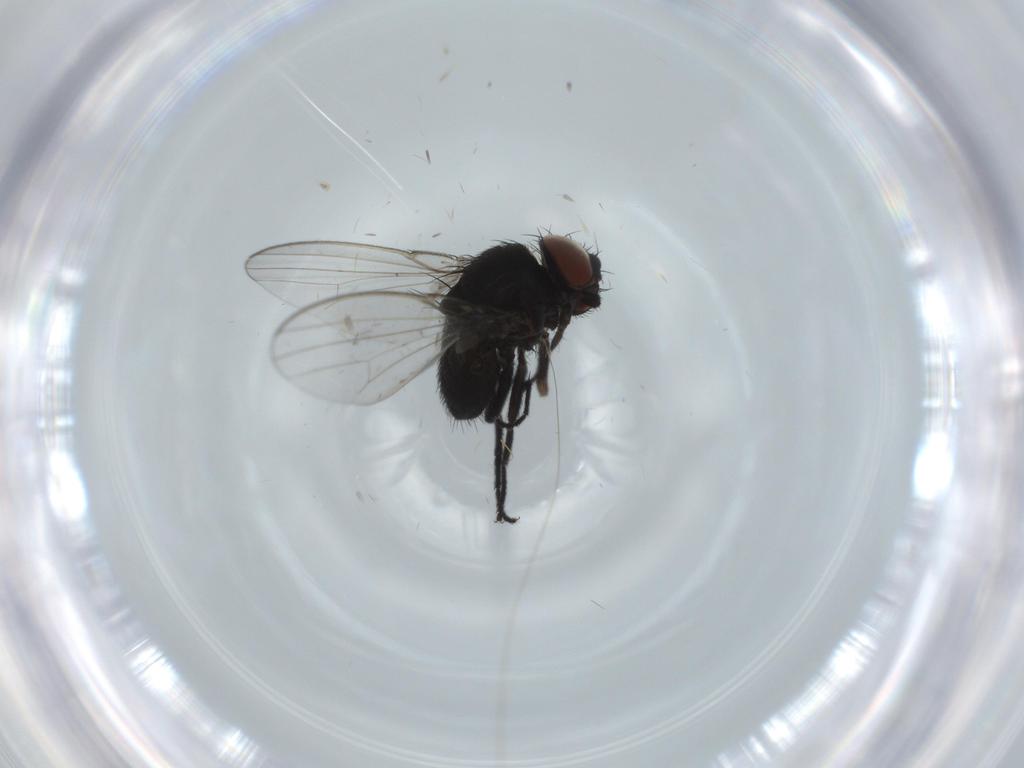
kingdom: Animalia
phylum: Arthropoda
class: Insecta
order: Diptera
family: Milichiidae
